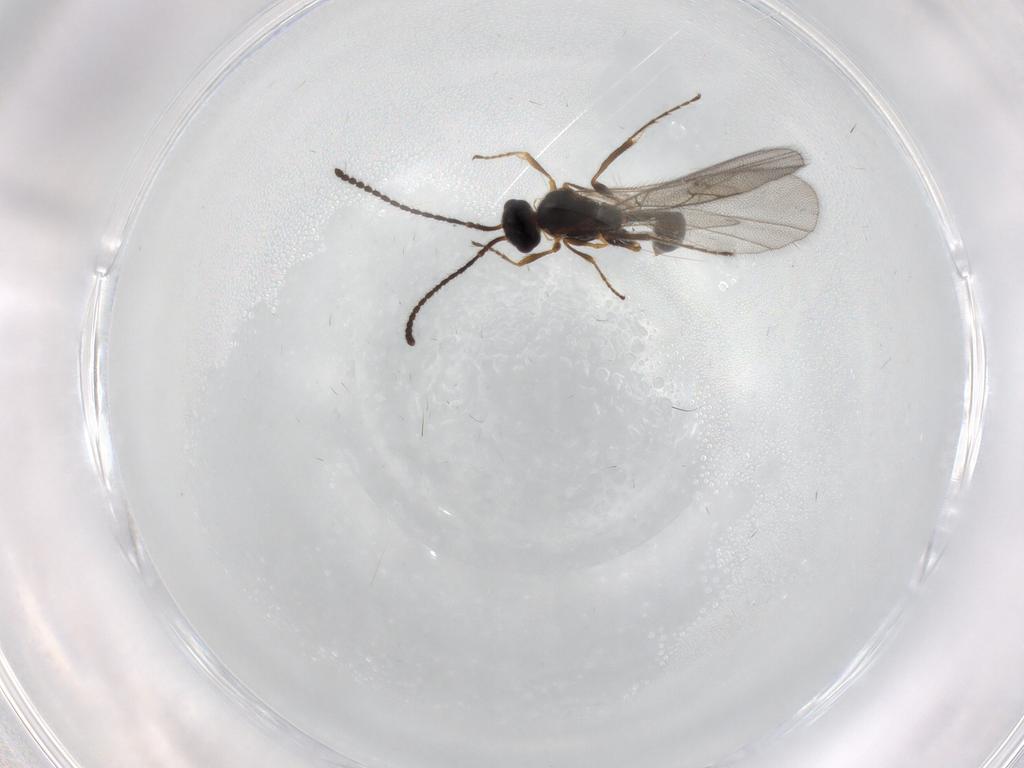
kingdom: Animalia
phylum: Arthropoda
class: Insecta
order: Hymenoptera
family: Diapriidae
